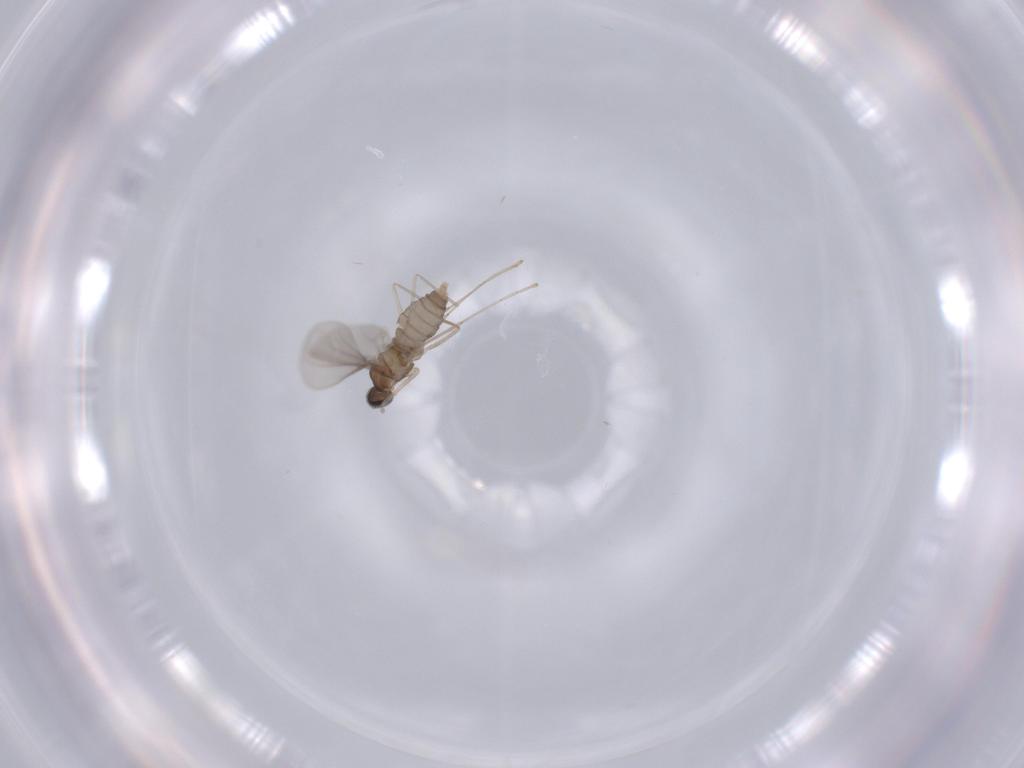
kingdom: Animalia
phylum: Arthropoda
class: Insecta
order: Diptera
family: Cecidomyiidae
